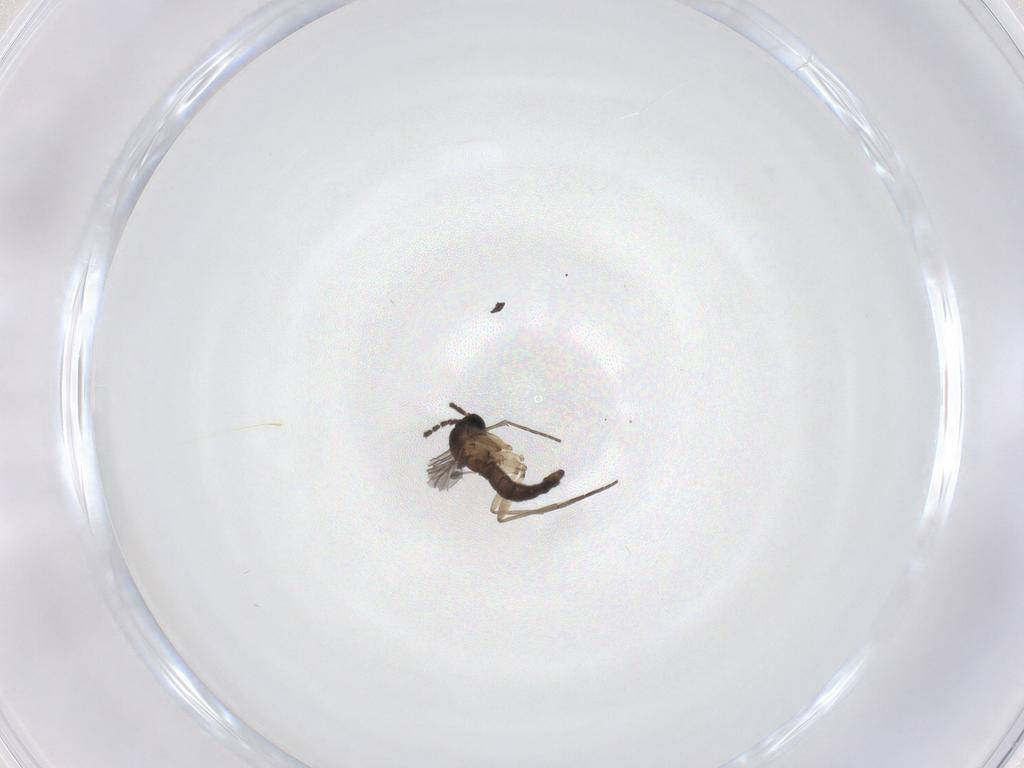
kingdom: Animalia
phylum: Arthropoda
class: Insecta
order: Diptera
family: Sciaridae
